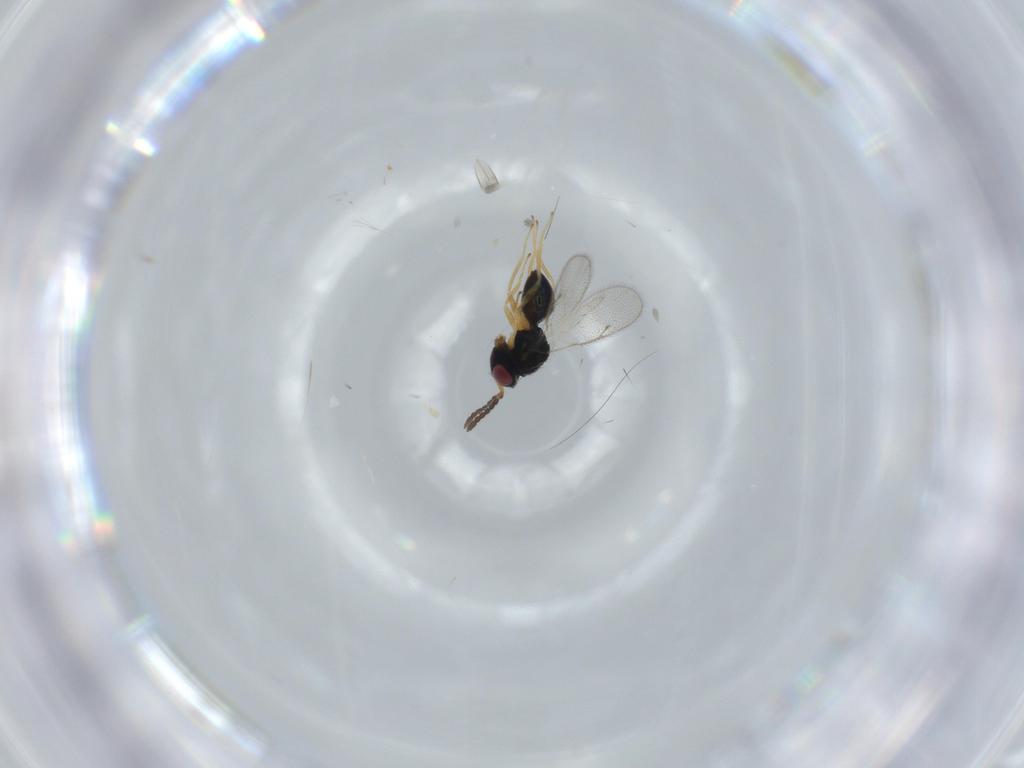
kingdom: Animalia
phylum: Arthropoda
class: Insecta
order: Hymenoptera
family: Pteromalidae
